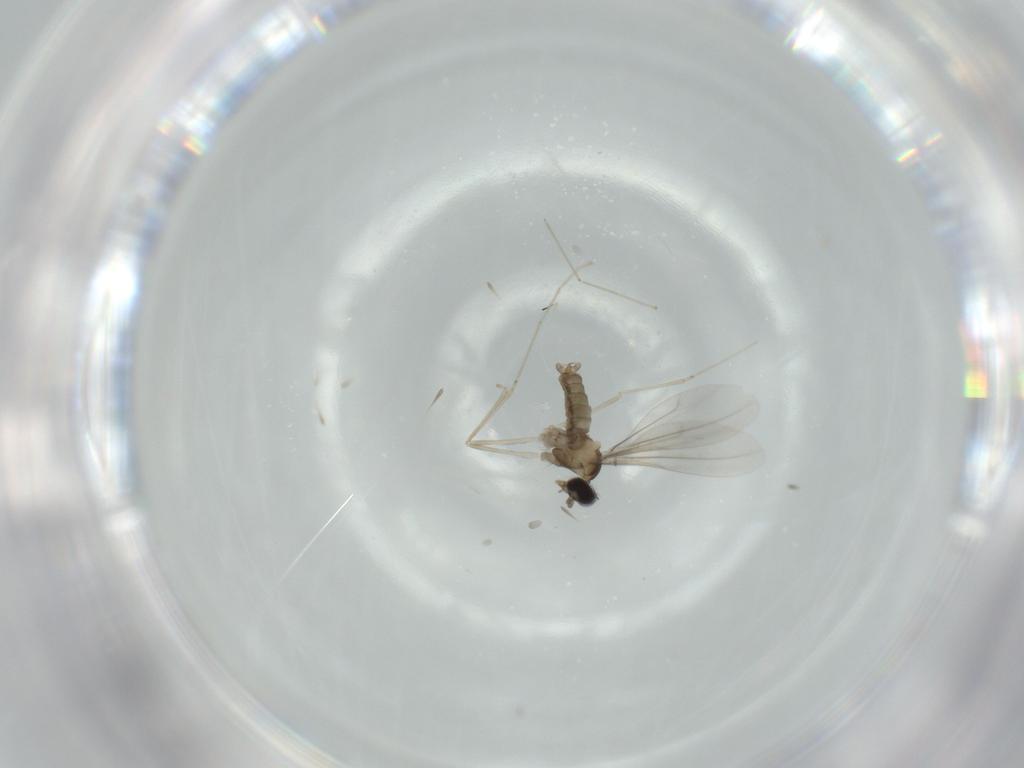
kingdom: Animalia
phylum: Arthropoda
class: Insecta
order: Diptera
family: Cecidomyiidae
